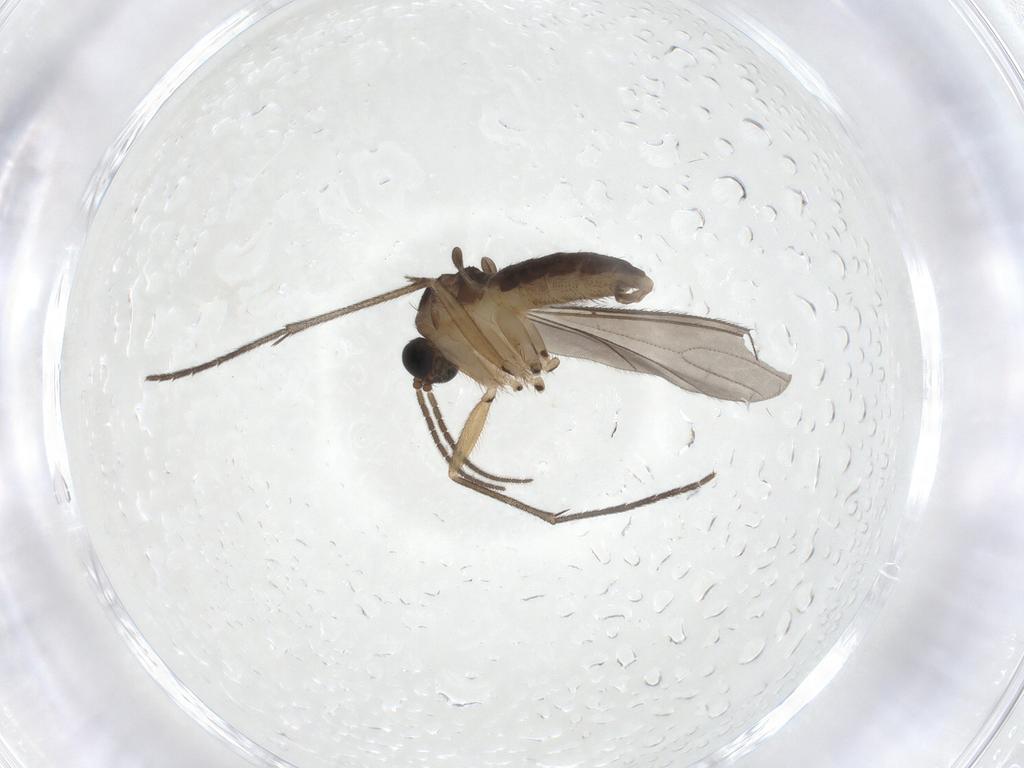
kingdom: Animalia
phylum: Arthropoda
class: Insecta
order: Diptera
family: Sciaridae
